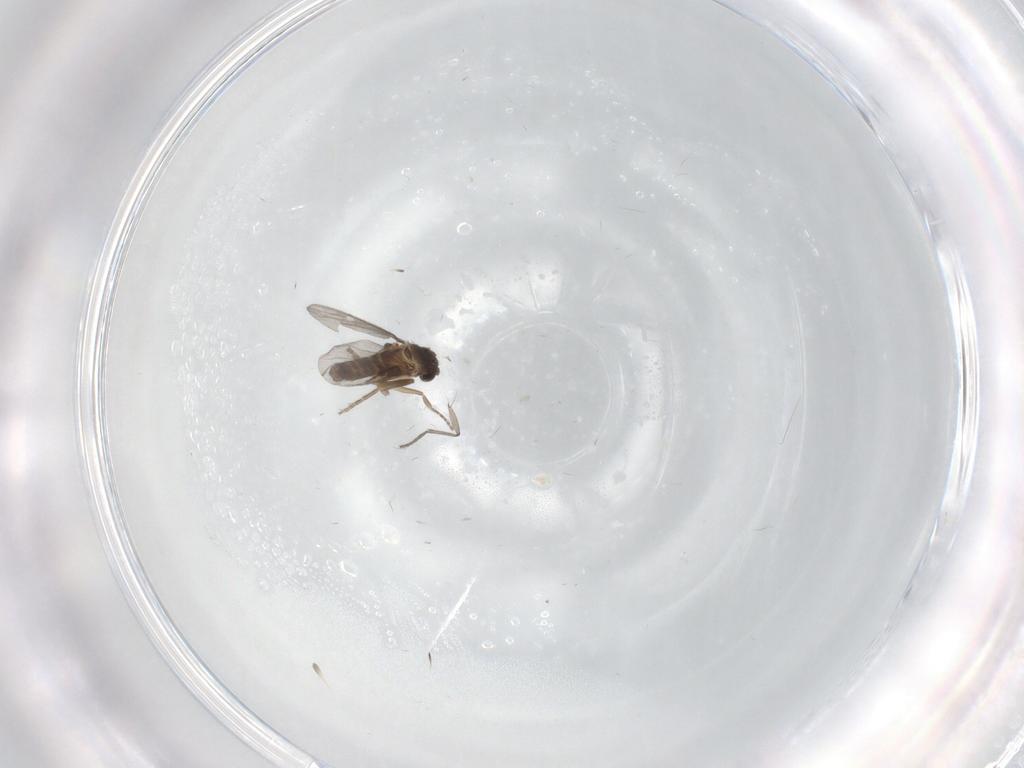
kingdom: Animalia
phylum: Arthropoda
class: Insecta
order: Diptera
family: Sciaridae
